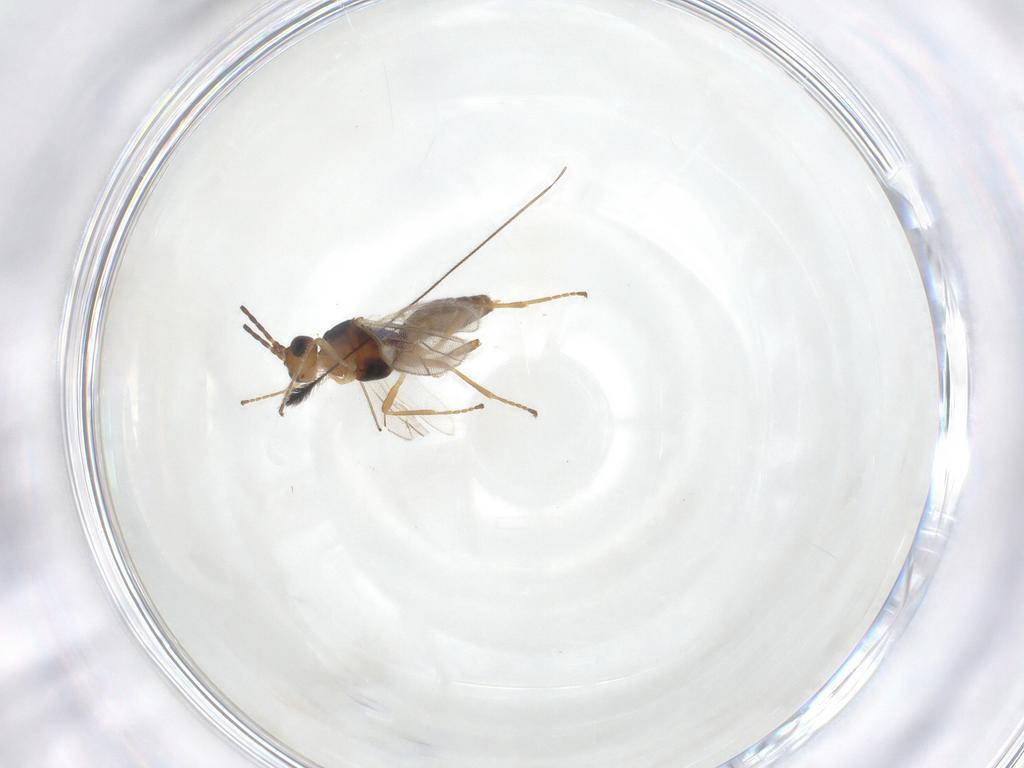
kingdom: Animalia
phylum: Arthropoda
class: Insecta
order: Hymenoptera
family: Braconidae
